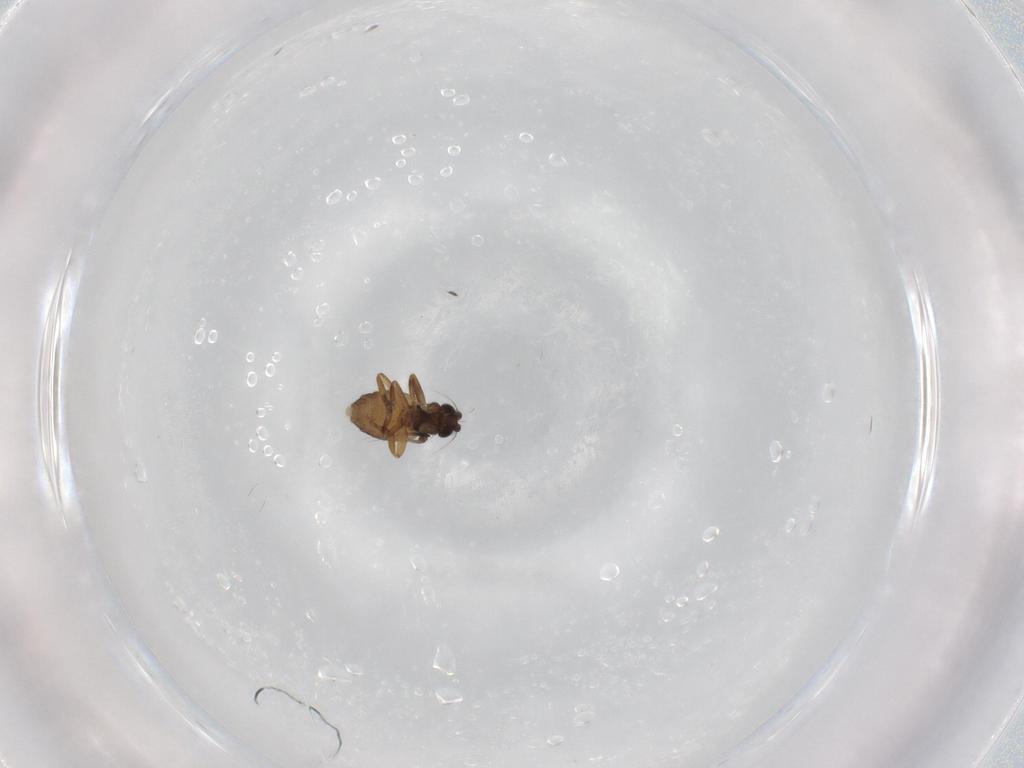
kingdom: Animalia
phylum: Arthropoda
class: Insecta
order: Diptera
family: Phoridae
